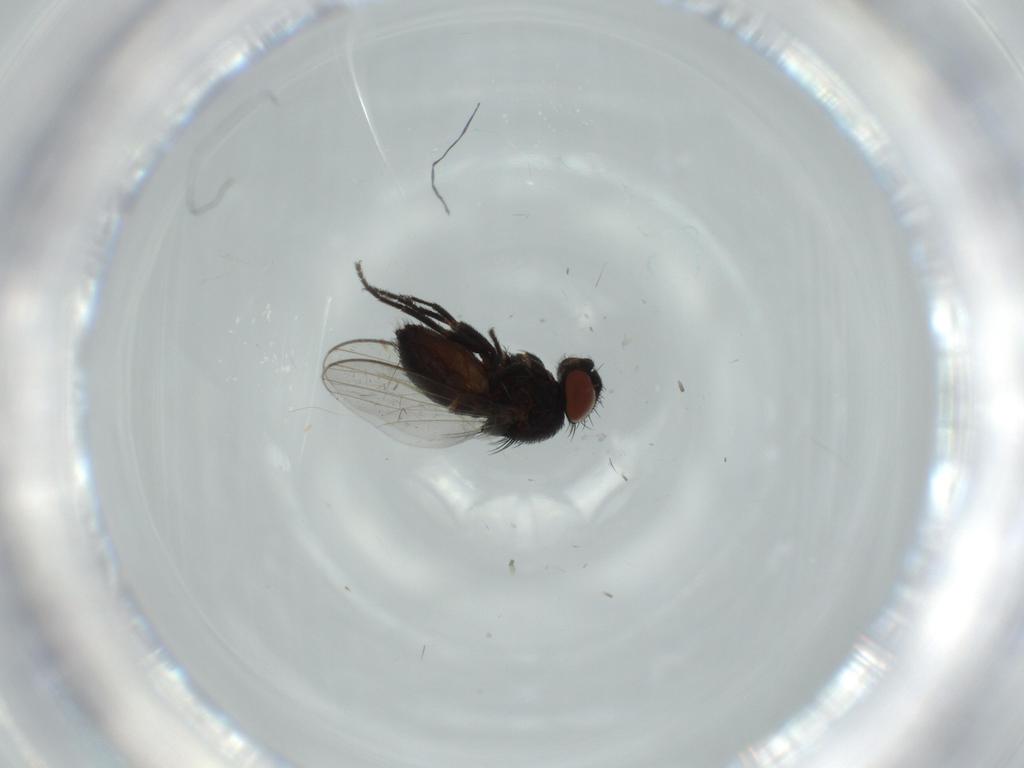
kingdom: Animalia
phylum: Arthropoda
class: Insecta
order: Diptera
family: Milichiidae
